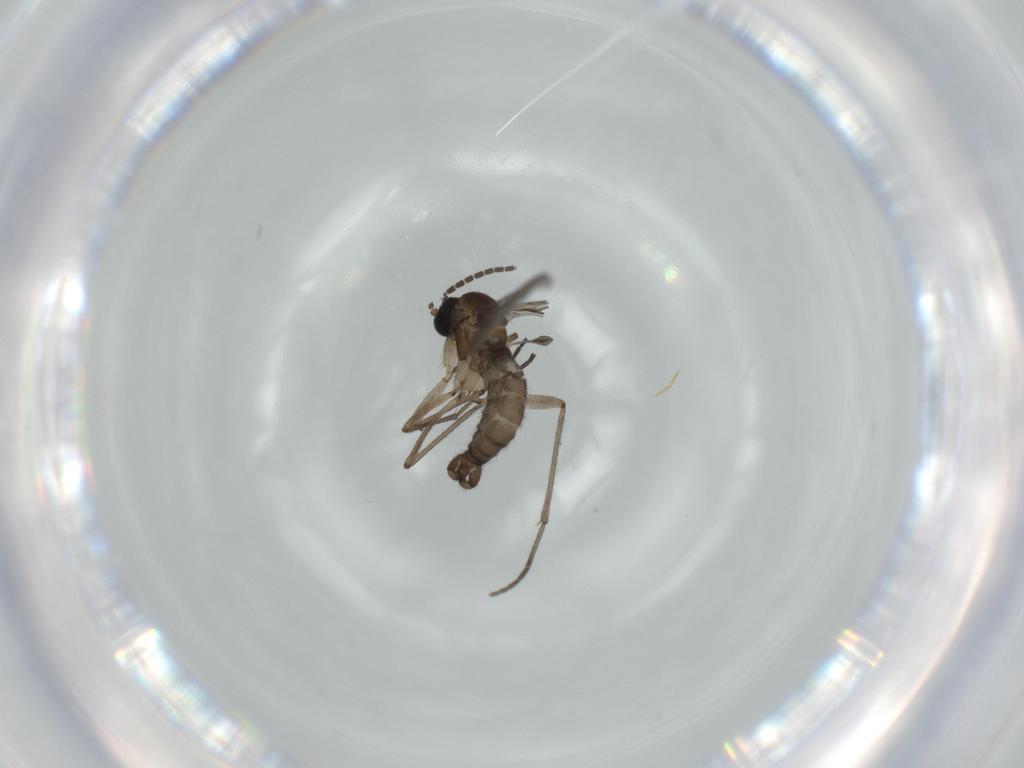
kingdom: Animalia
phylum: Arthropoda
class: Insecta
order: Diptera
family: Sciaridae
